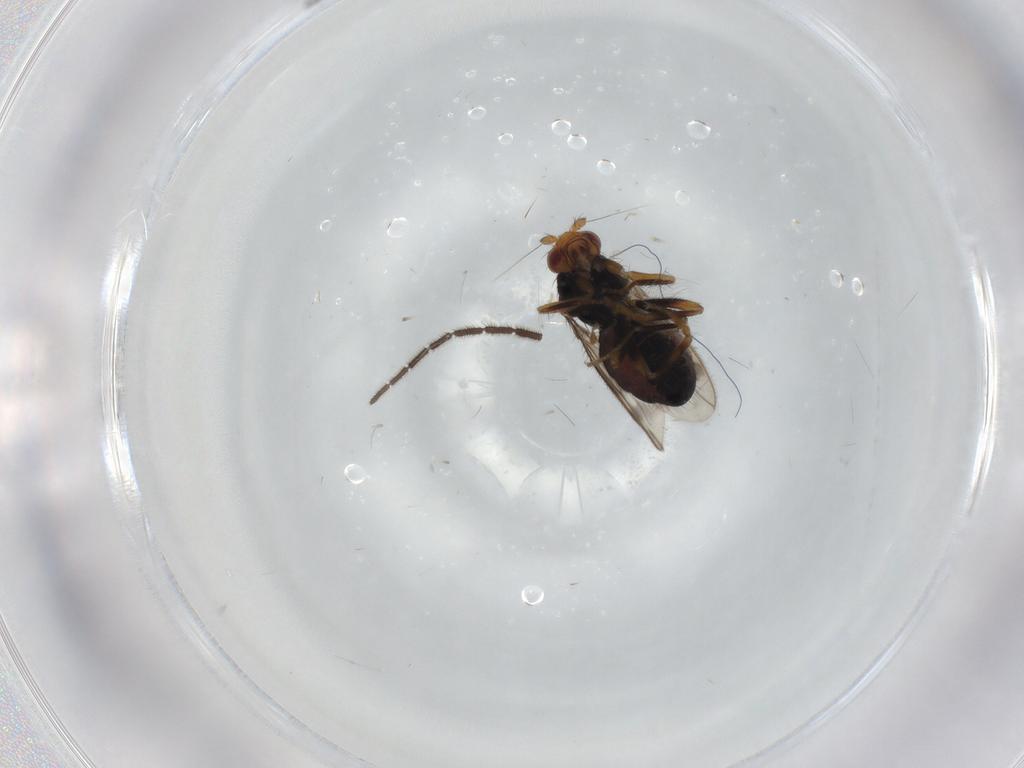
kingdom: Animalia
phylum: Arthropoda
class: Insecta
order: Diptera
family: Sphaeroceridae
